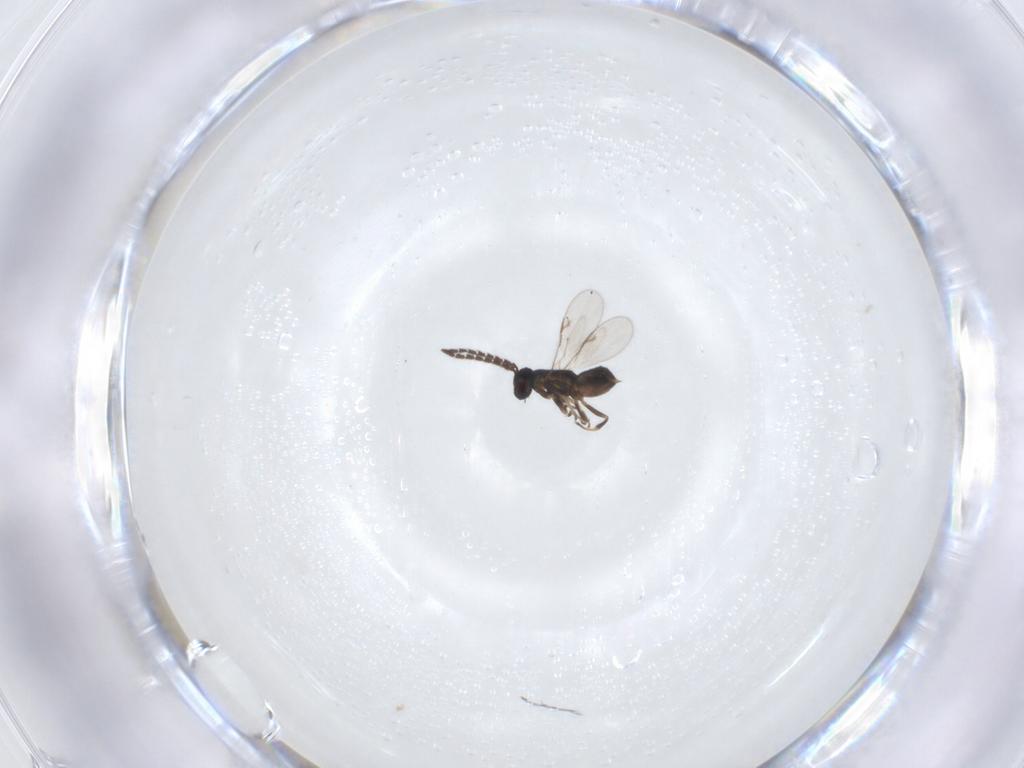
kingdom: Animalia
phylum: Arthropoda
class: Insecta
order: Hymenoptera
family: Encyrtidae
